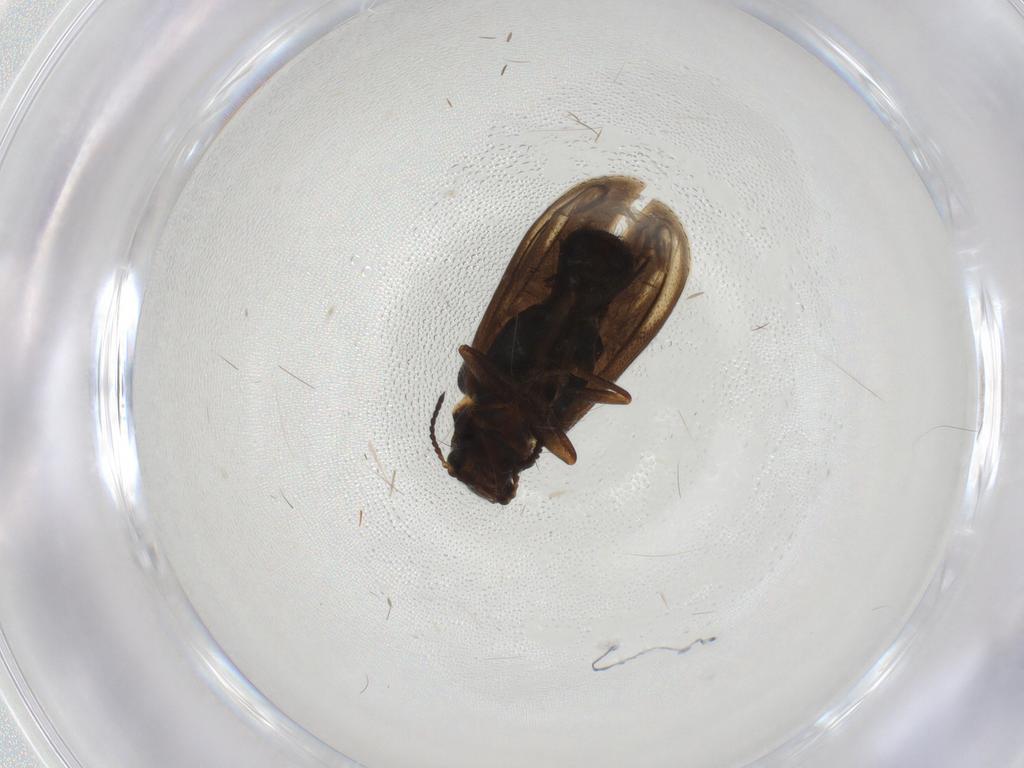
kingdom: Animalia
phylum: Arthropoda
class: Insecta
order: Coleoptera
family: Melyridae
